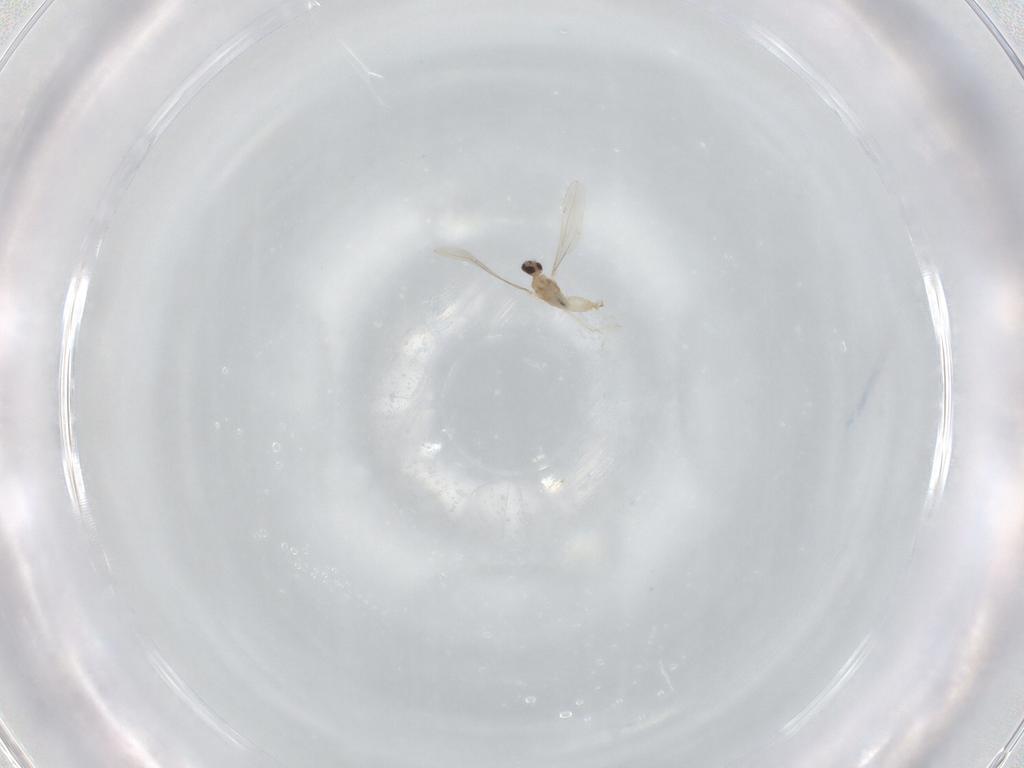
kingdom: Animalia
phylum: Arthropoda
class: Insecta
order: Diptera
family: Cecidomyiidae
